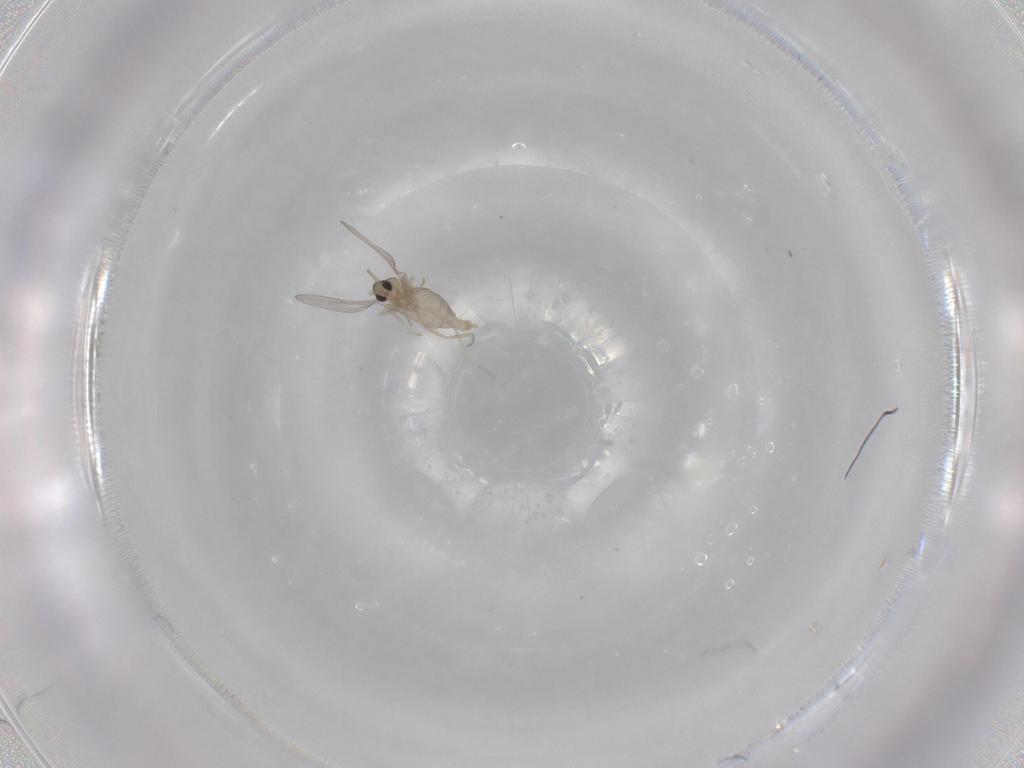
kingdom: Animalia
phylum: Arthropoda
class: Insecta
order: Diptera
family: Cecidomyiidae
